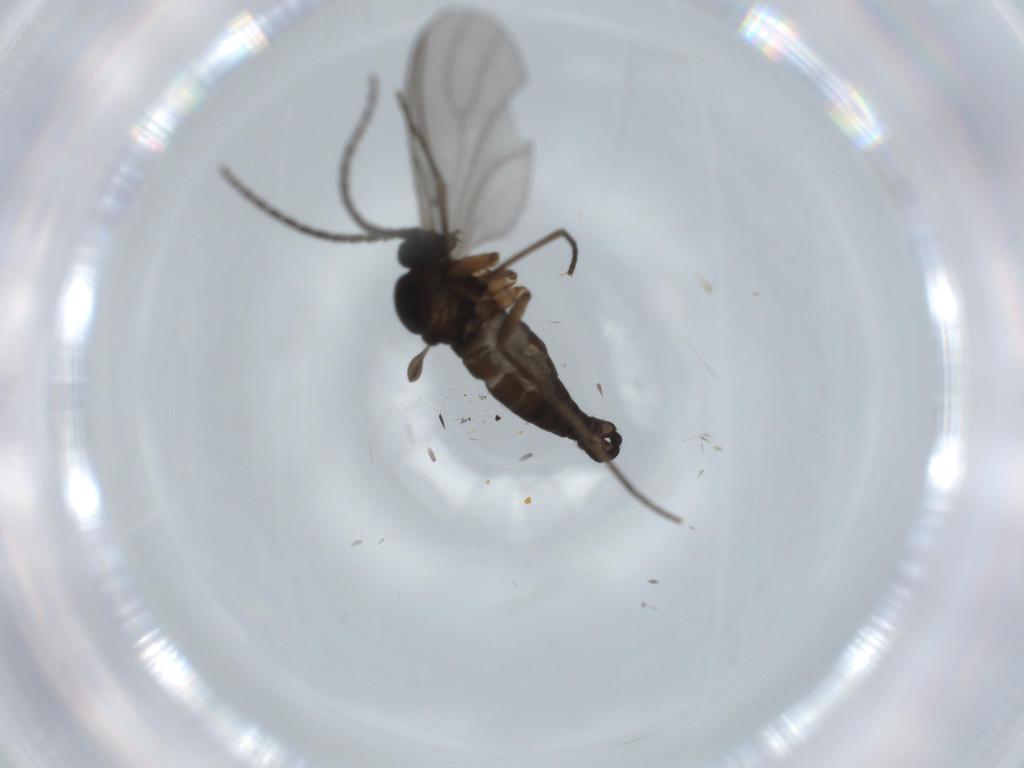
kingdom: Animalia
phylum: Arthropoda
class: Insecta
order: Diptera
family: Sciaridae
